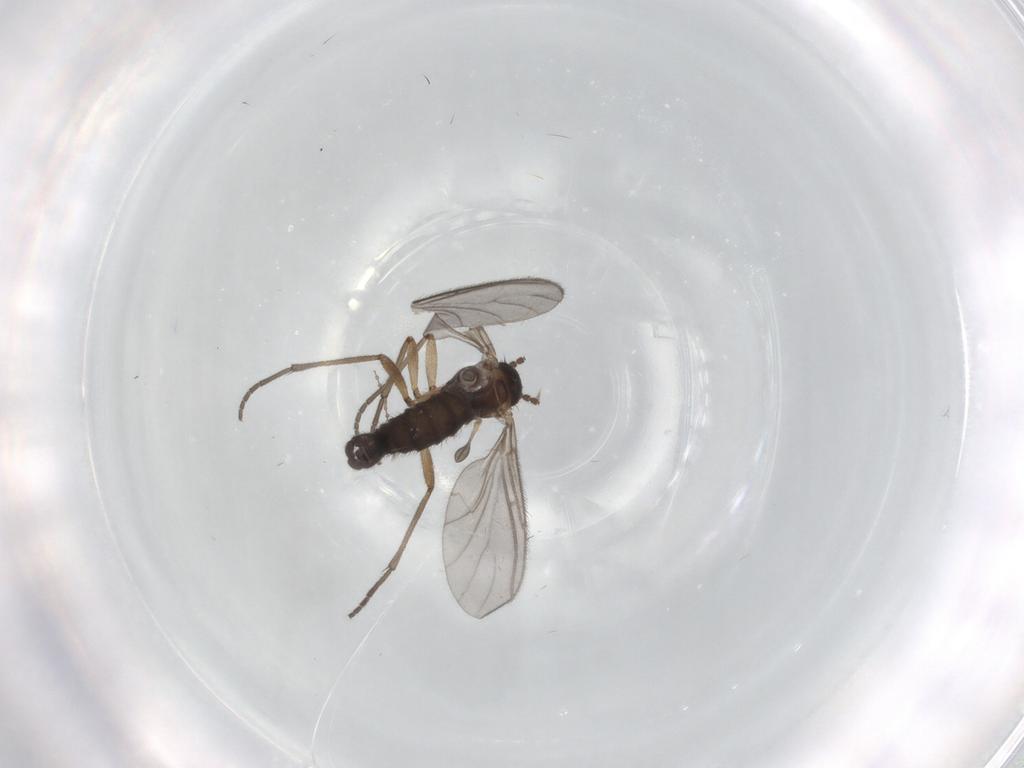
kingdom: Animalia
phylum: Arthropoda
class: Insecta
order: Diptera
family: Sciaridae
